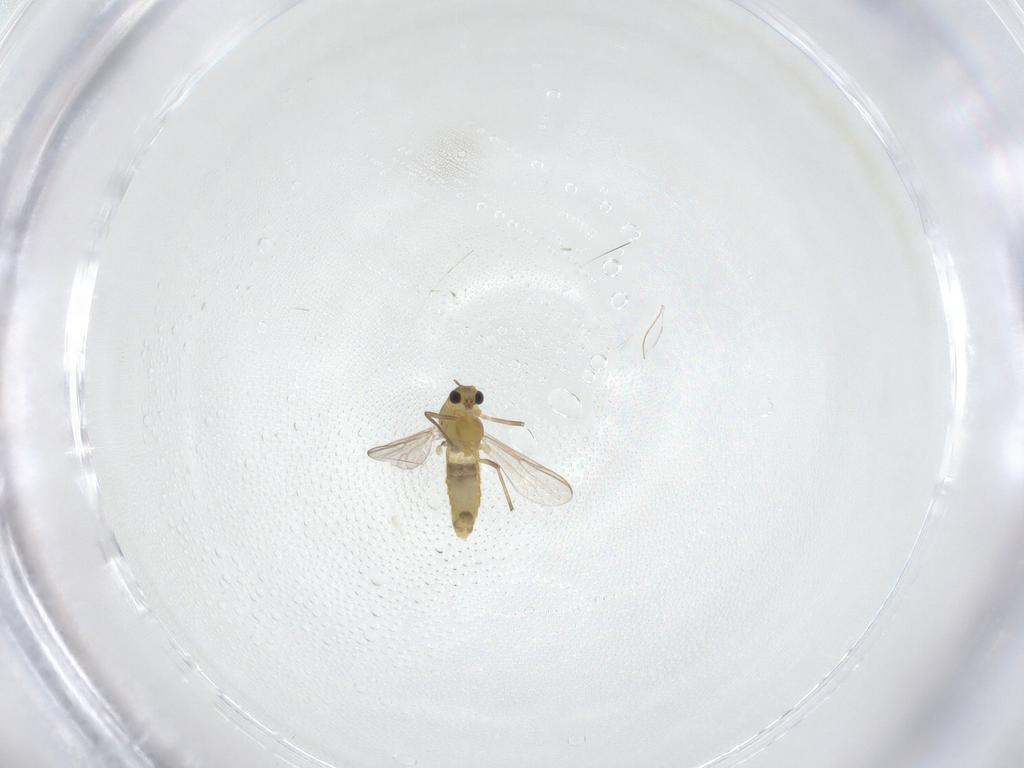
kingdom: Animalia
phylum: Arthropoda
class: Insecta
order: Diptera
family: Chironomidae
